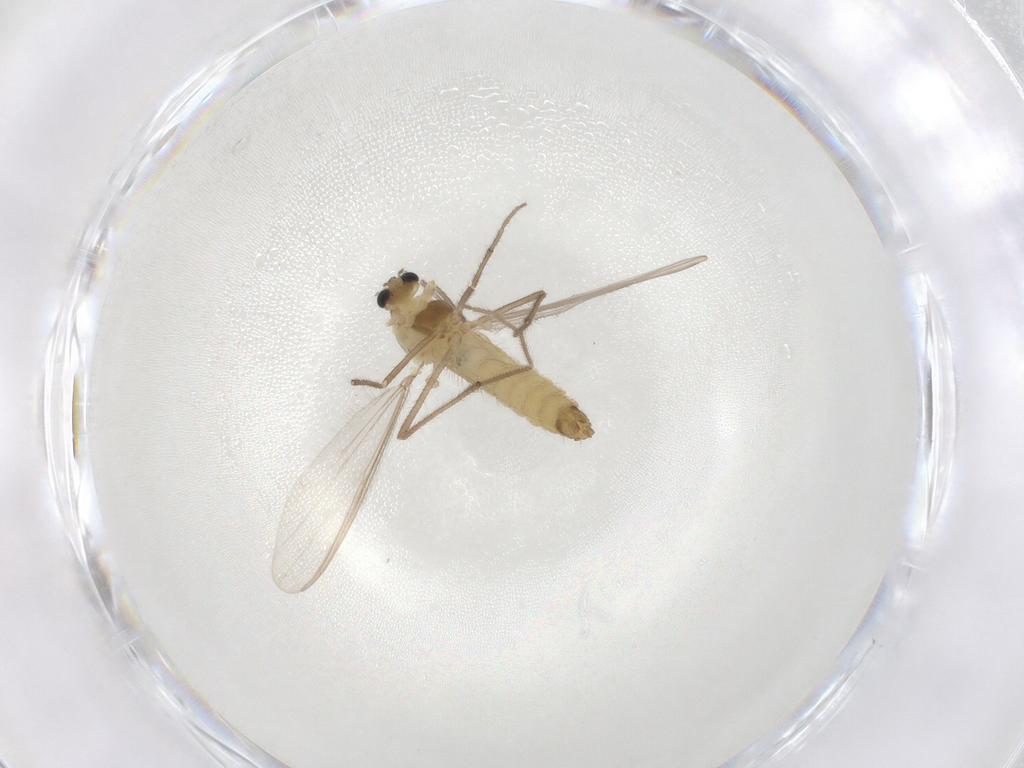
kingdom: Animalia
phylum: Arthropoda
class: Insecta
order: Diptera
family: Chironomidae
